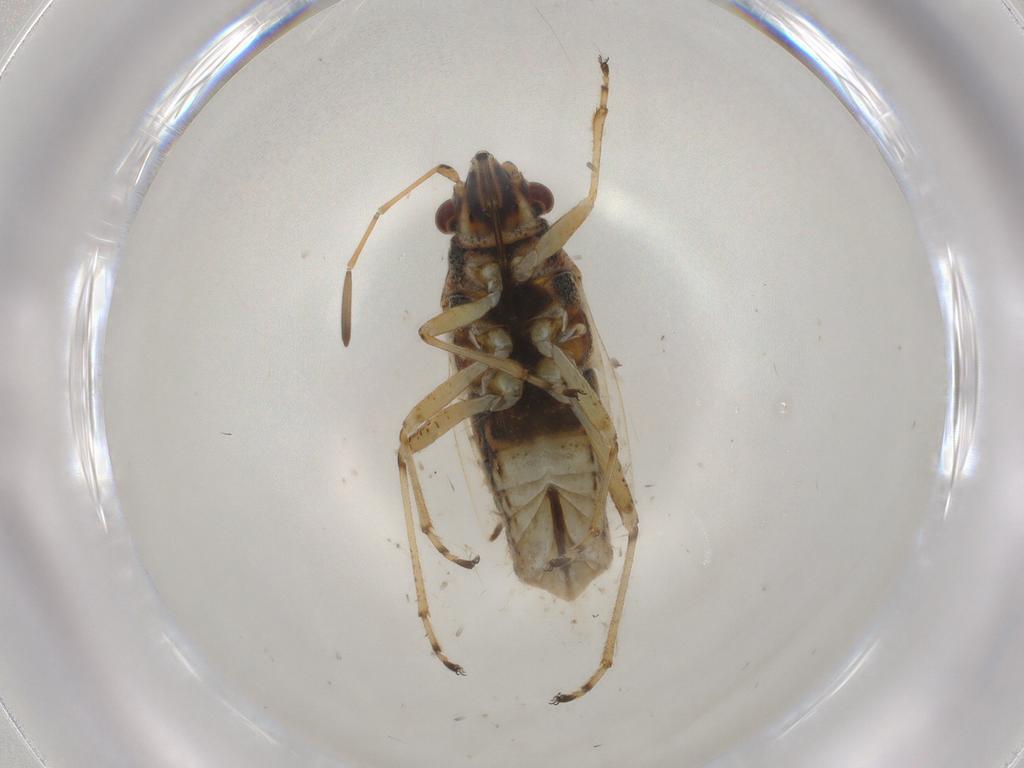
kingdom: Animalia
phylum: Arthropoda
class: Insecta
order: Hemiptera
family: Lygaeidae
